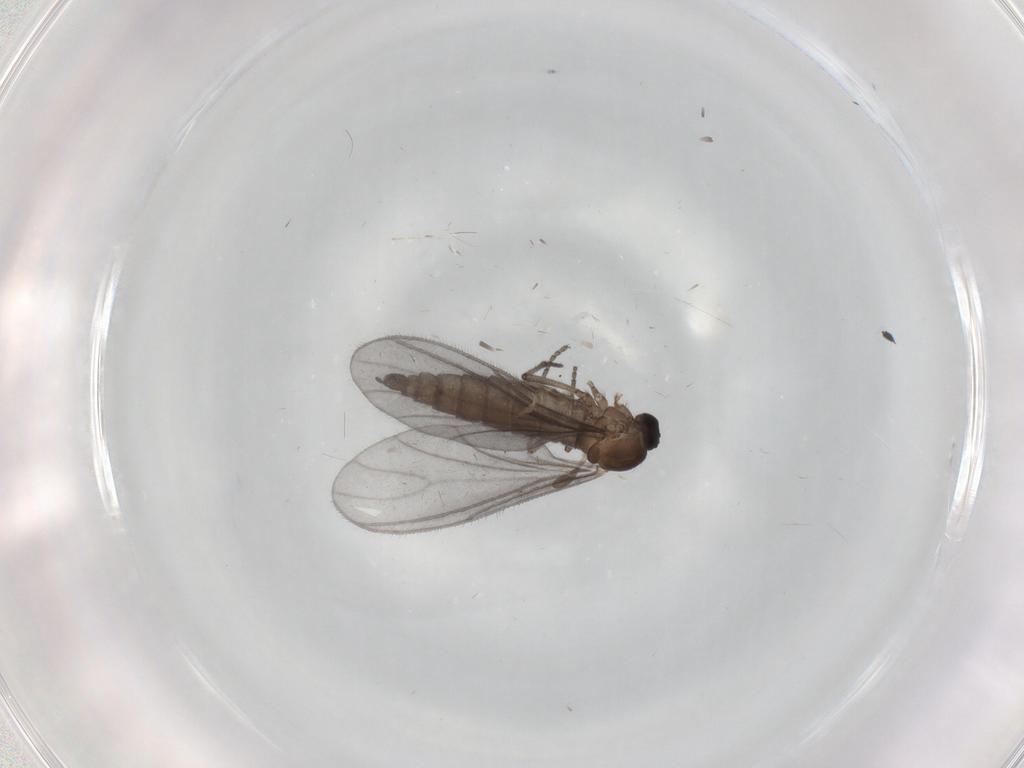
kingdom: Animalia
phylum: Arthropoda
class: Insecta
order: Diptera
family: Sciaridae
